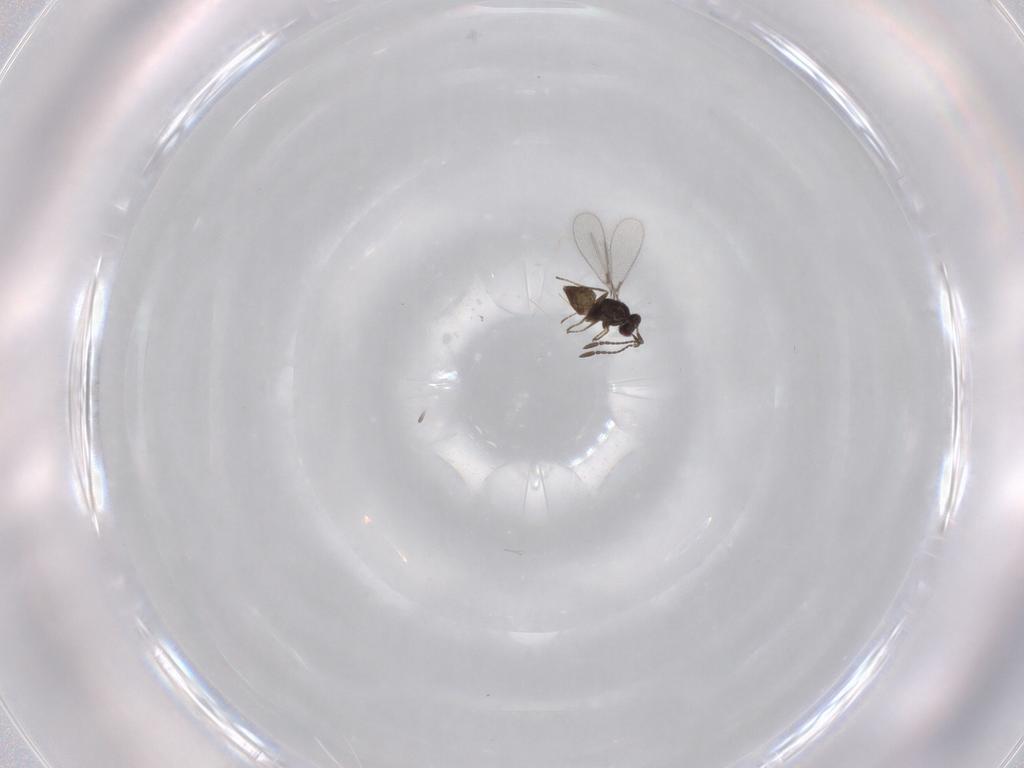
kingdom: Animalia
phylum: Arthropoda
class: Insecta
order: Hymenoptera
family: Mymaridae
